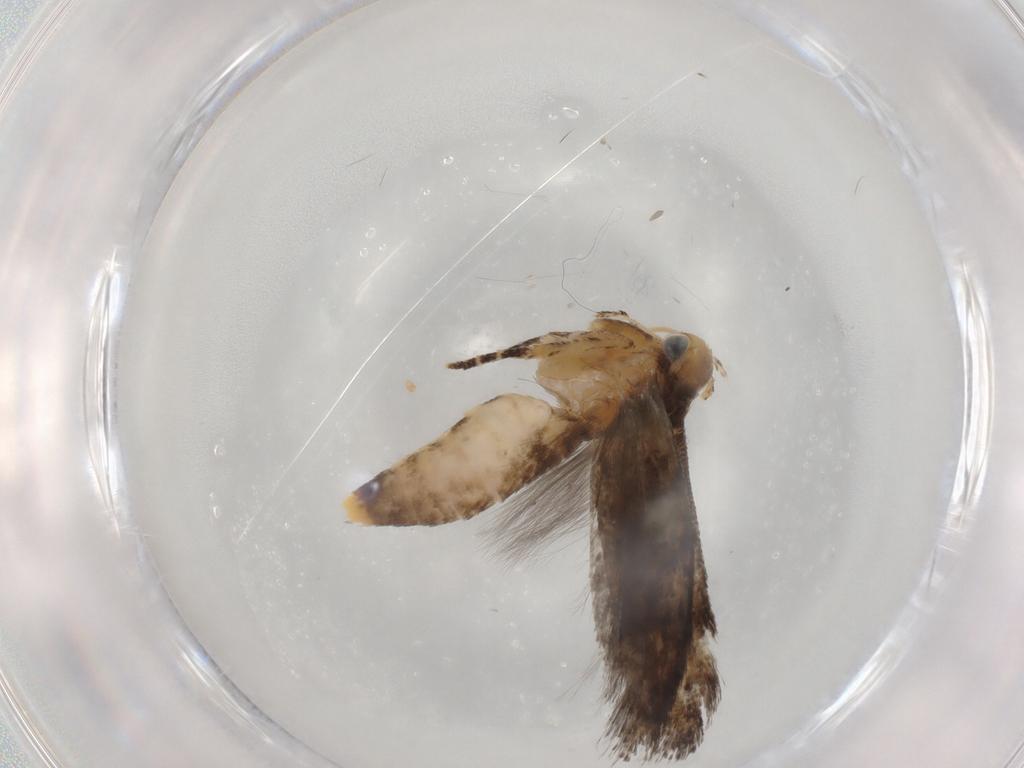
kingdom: Animalia
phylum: Arthropoda
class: Insecta
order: Lepidoptera
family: Gelechiidae
